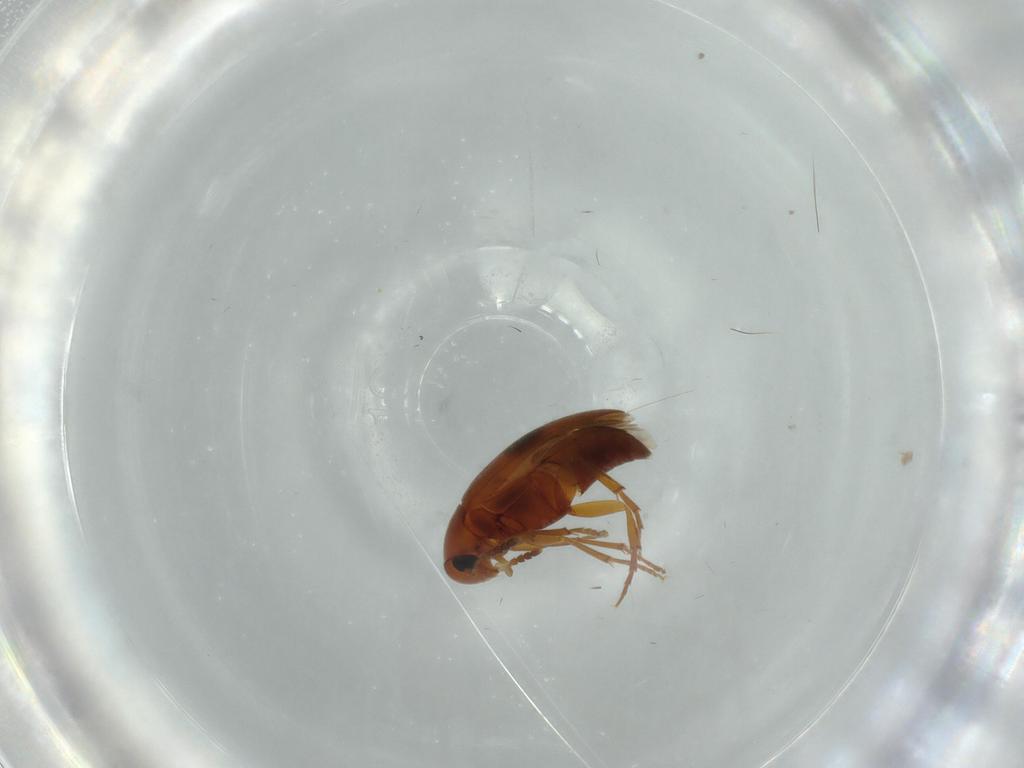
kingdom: Animalia
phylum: Arthropoda
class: Insecta
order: Coleoptera
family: Scraptiidae
